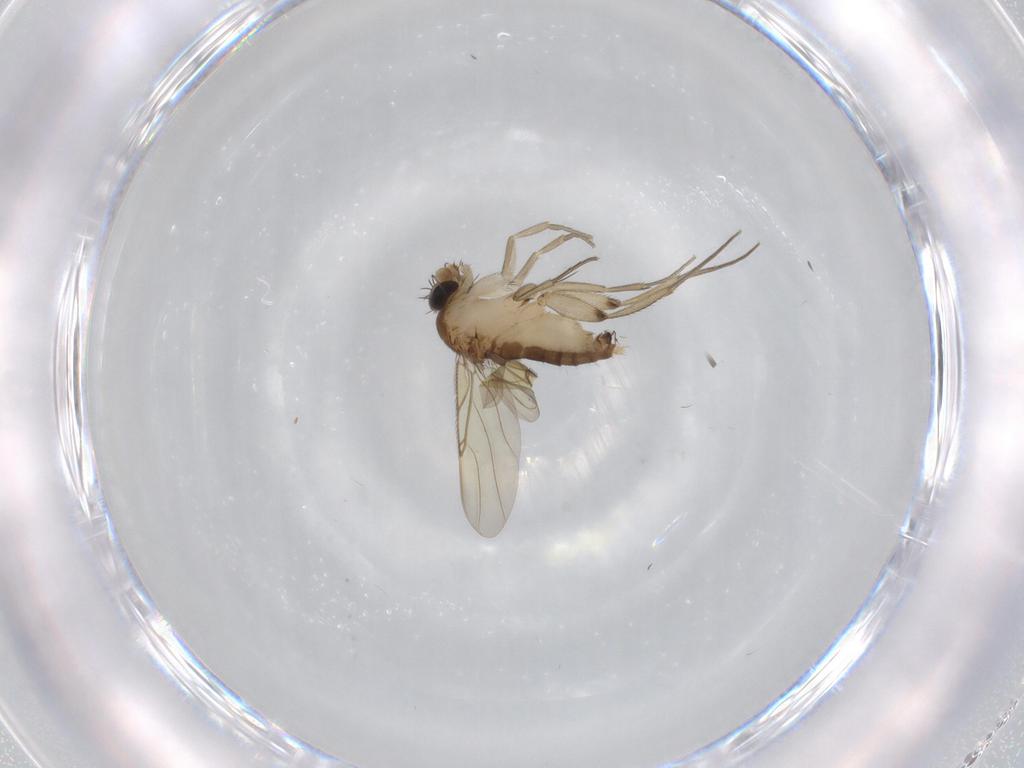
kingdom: Animalia
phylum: Arthropoda
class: Insecta
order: Diptera
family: Phoridae
